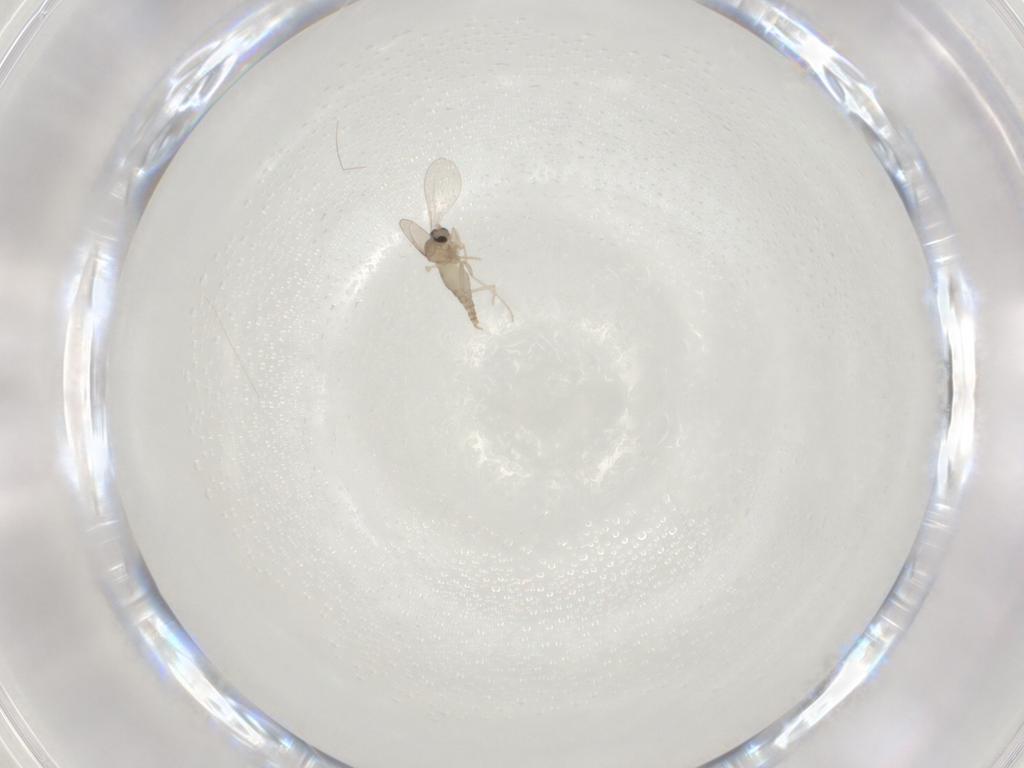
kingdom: Animalia
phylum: Arthropoda
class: Insecta
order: Diptera
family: Cecidomyiidae
